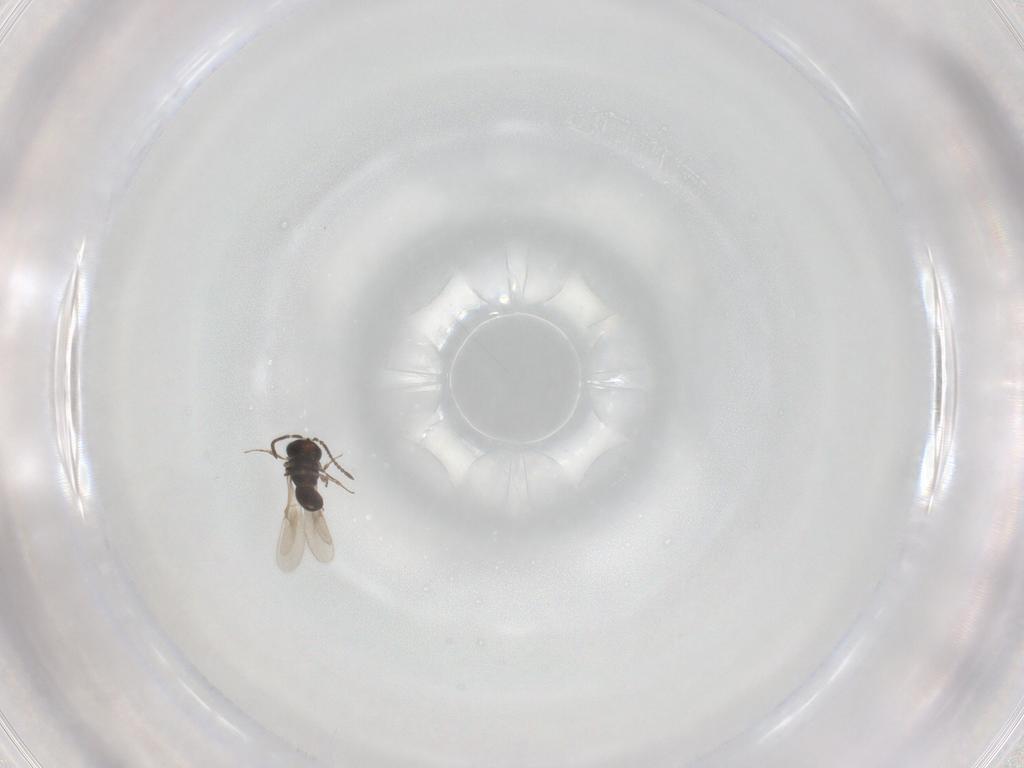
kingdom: Animalia
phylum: Arthropoda
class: Insecta
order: Hymenoptera
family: Scelionidae
